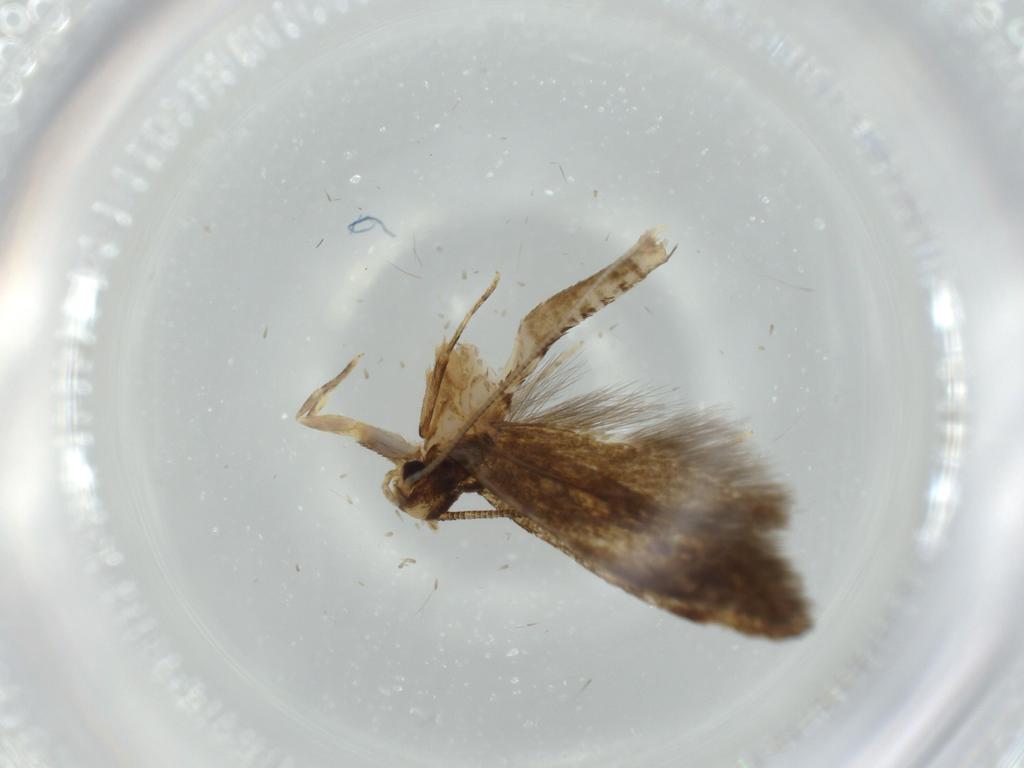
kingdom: Animalia
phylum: Arthropoda
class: Insecta
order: Lepidoptera
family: Tineidae
